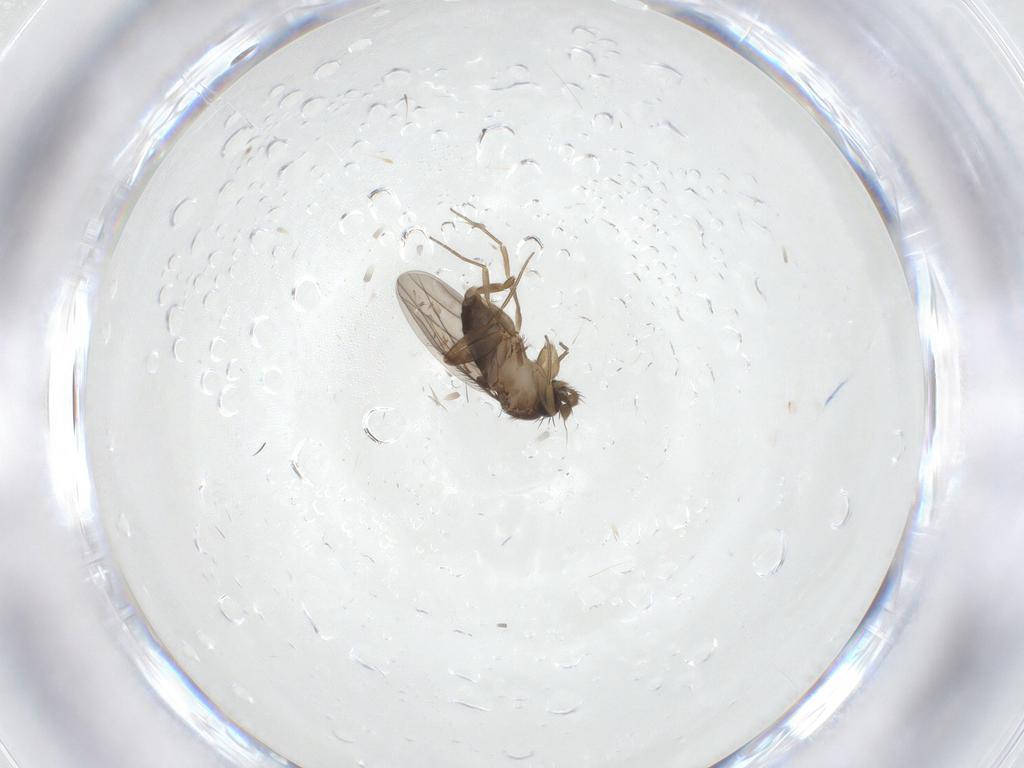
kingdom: Animalia
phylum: Arthropoda
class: Insecta
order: Diptera
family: Phoridae
